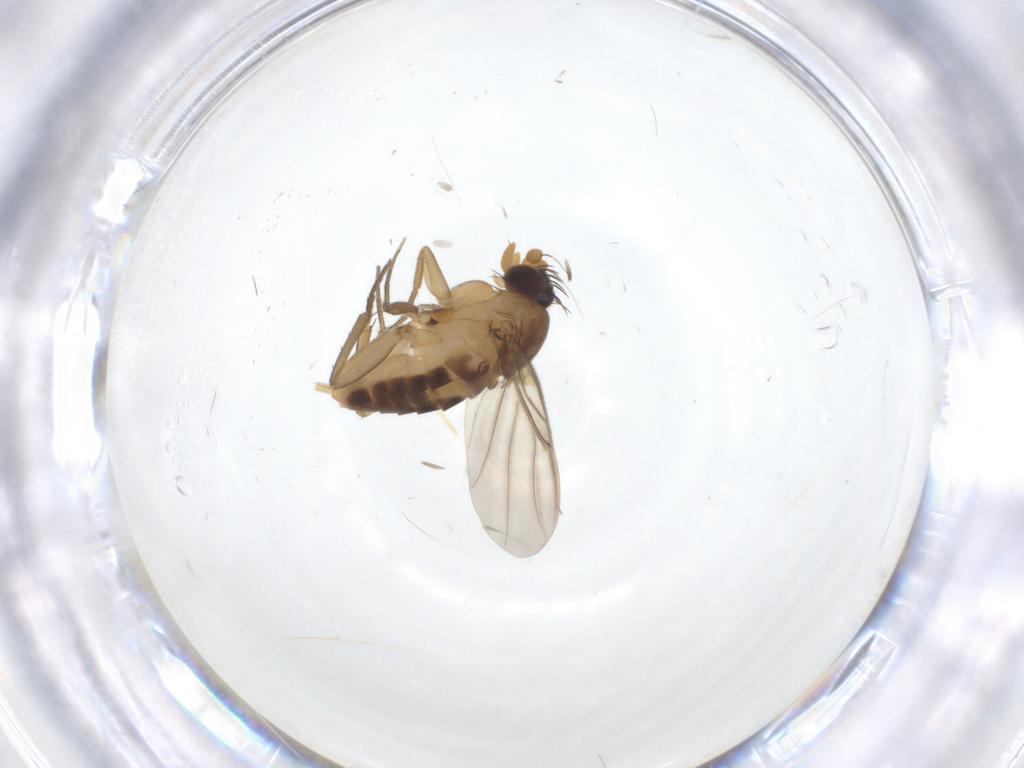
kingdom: Animalia
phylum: Arthropoda
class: Insecta
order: Diptera
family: Phoridae
